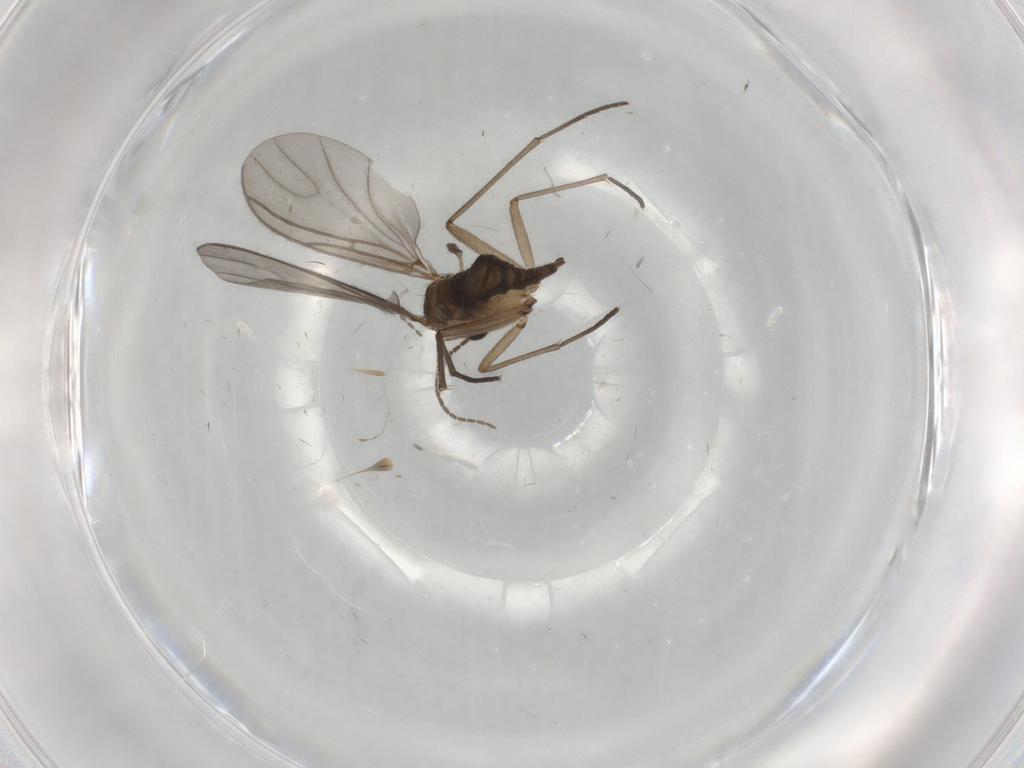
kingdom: Animalia
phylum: Arthropoda
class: Insecta
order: Diptera
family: Cecidomyiidae
